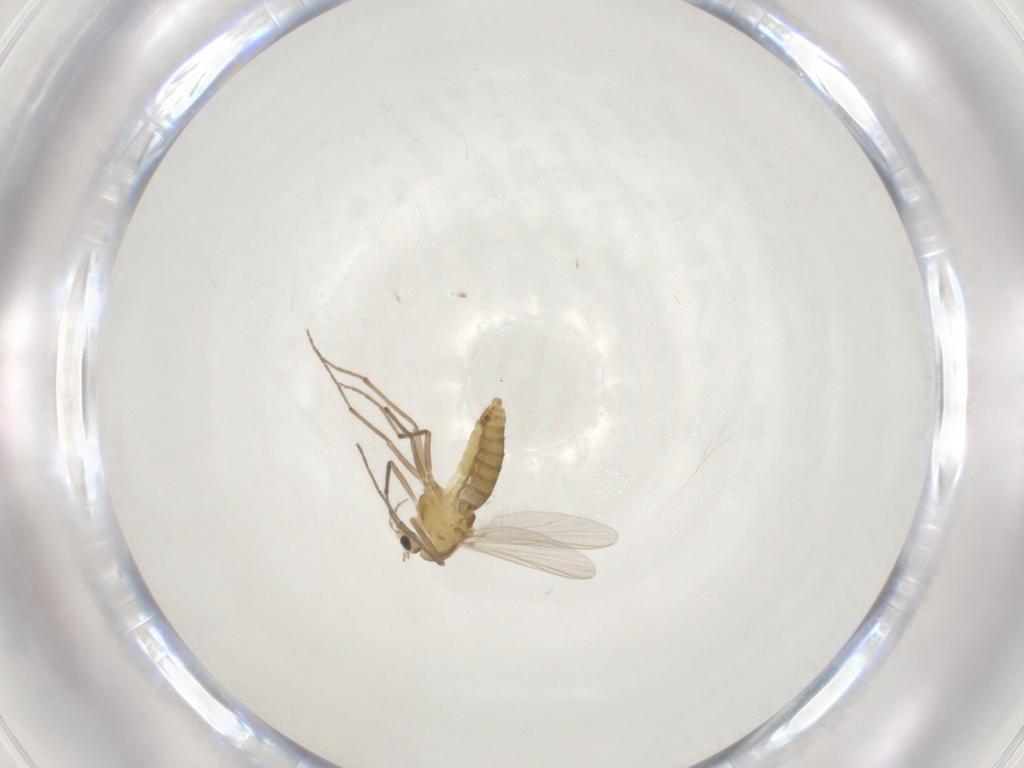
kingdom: Animalia
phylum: Arthropoda
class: Insecta
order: Diptera
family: Chironomidae
